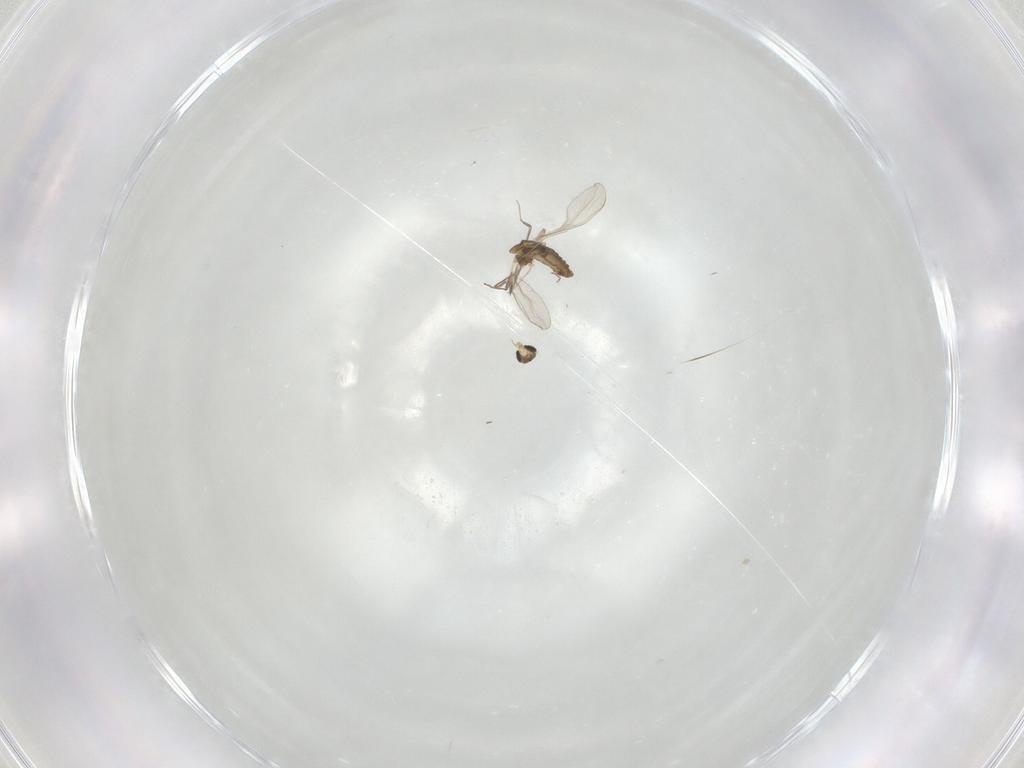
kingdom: Animalia
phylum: Arthropoda
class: Insecta
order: Diptera
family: Chironomidae
